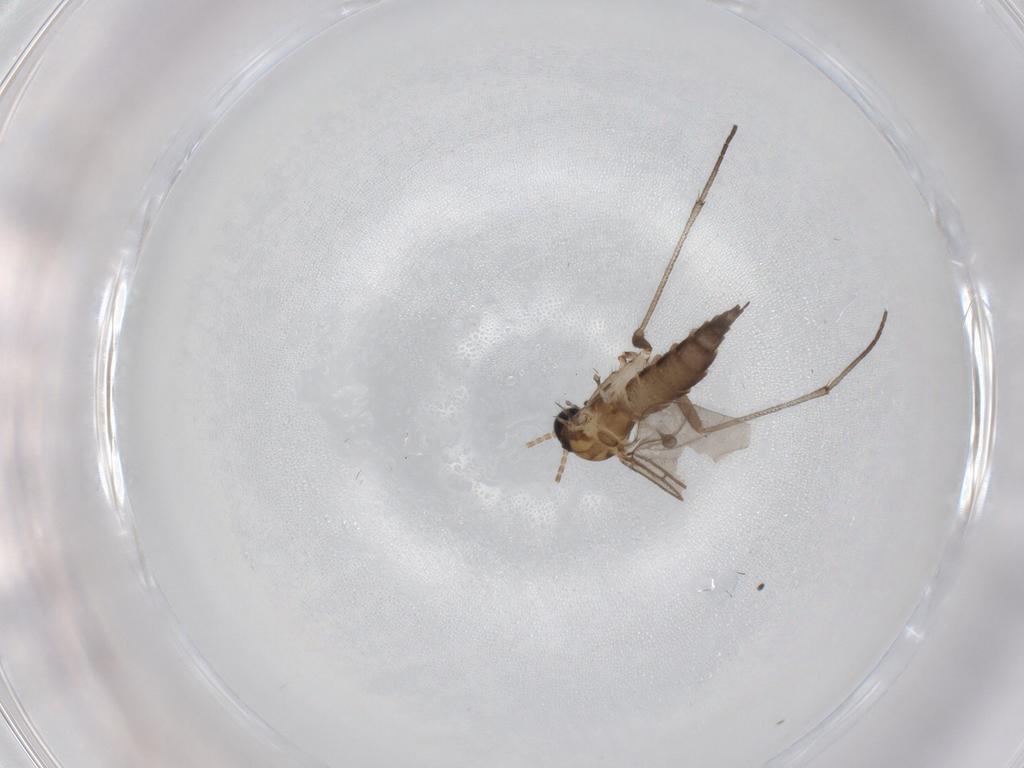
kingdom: Animalia
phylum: Arthropoda
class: Insecta
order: Diptera
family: Sciaridae
